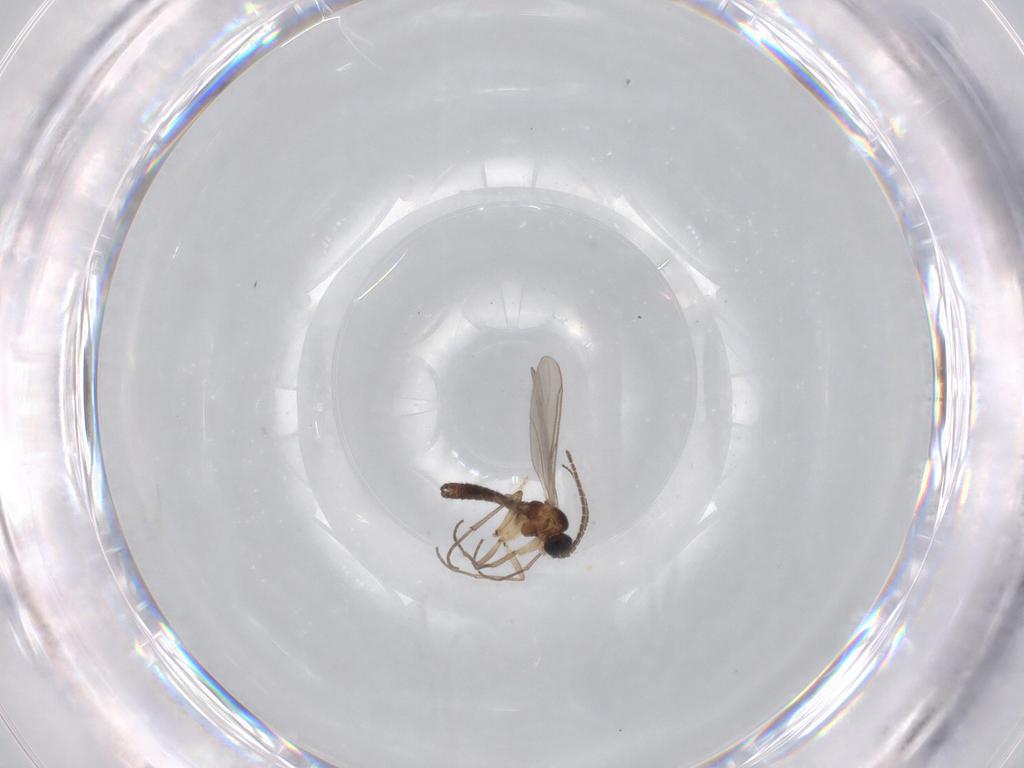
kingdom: Animalia
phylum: Arthropoda
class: Insecta
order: Diptera
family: Sciaridae
